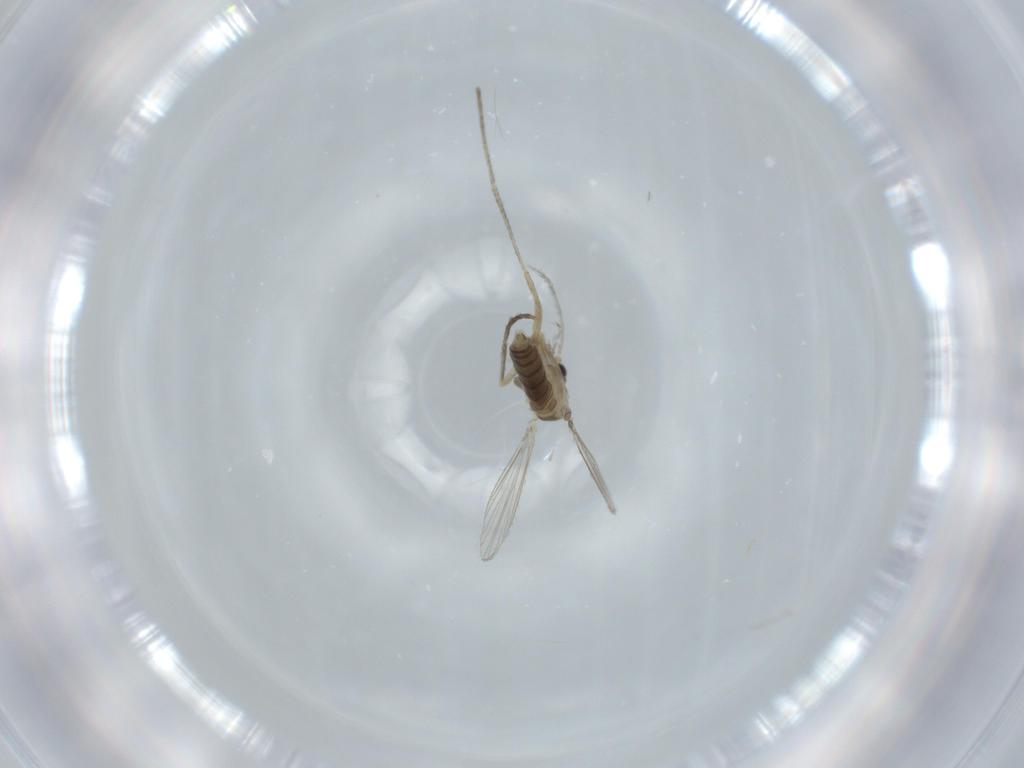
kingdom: Animalia
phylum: Arthropoda
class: Insecta
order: Diptera
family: Psychodidae
